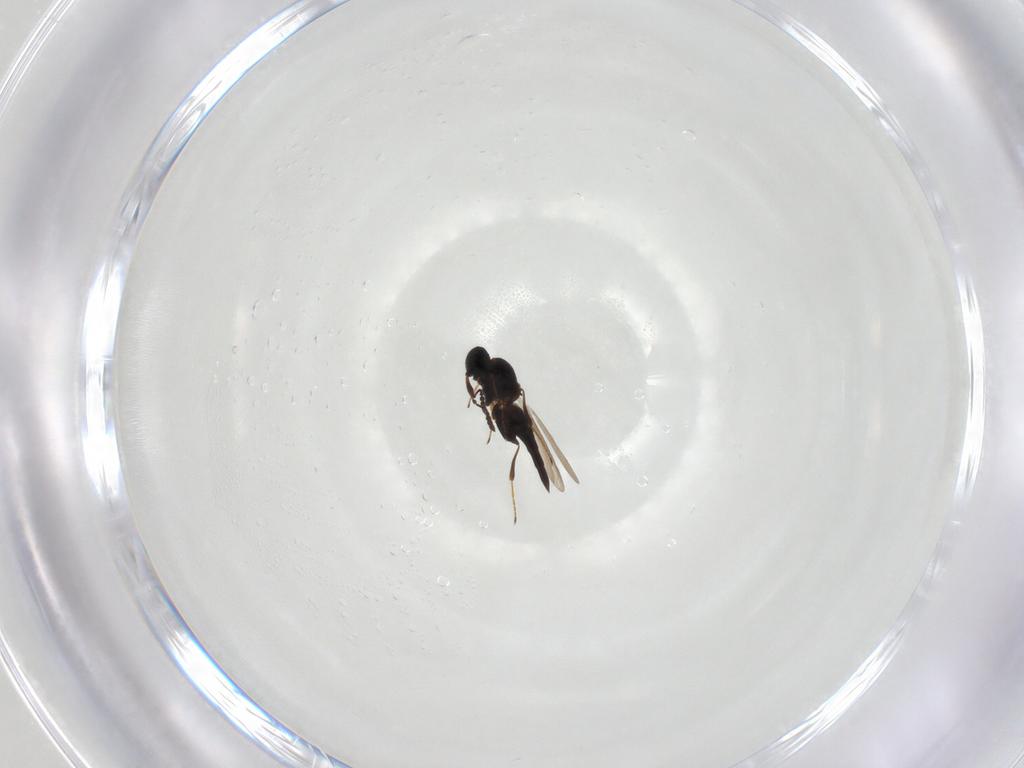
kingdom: Animalia
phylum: Arthropoda
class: Insecta
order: Hymenoptera
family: Platygastridae
